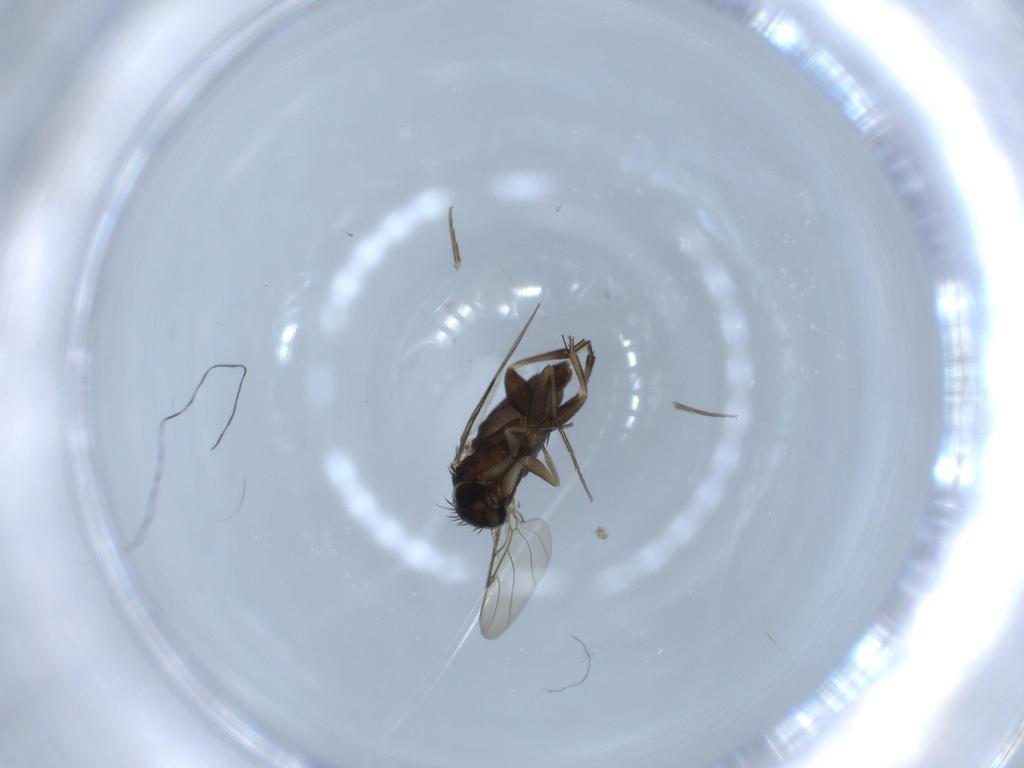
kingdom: Animalia
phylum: Arthropoda
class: Insecta
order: Diptera
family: Phoridae
